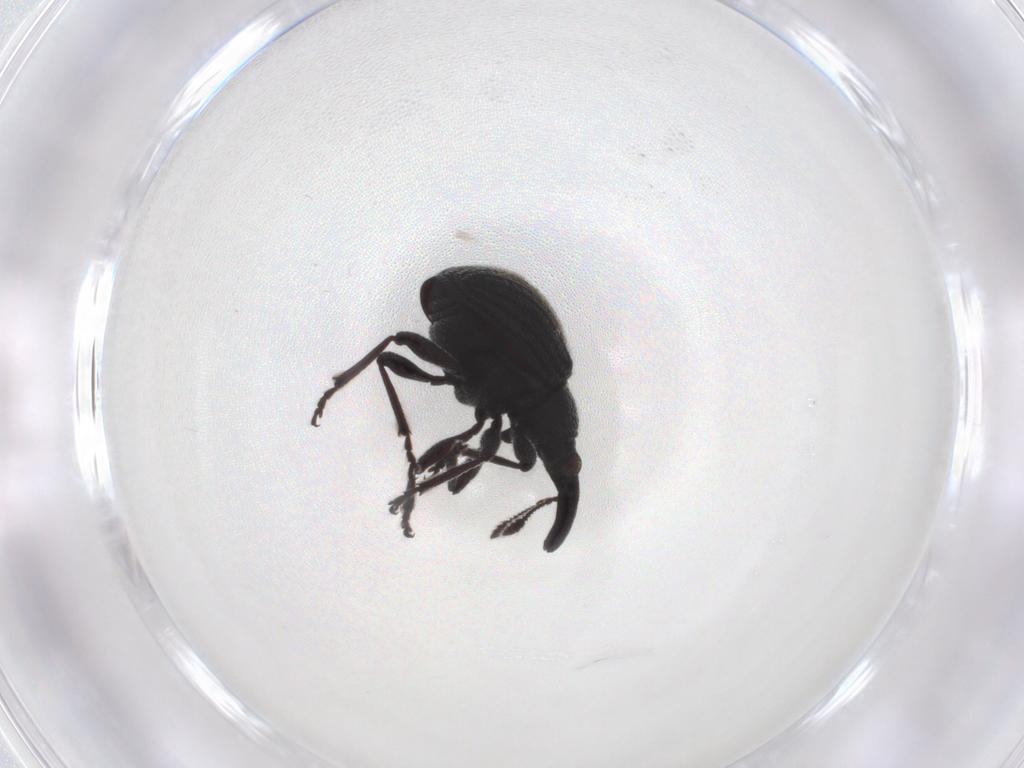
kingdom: Animalia
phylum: Arthropoda
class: Insecta
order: Coleoptera
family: Brentidae
